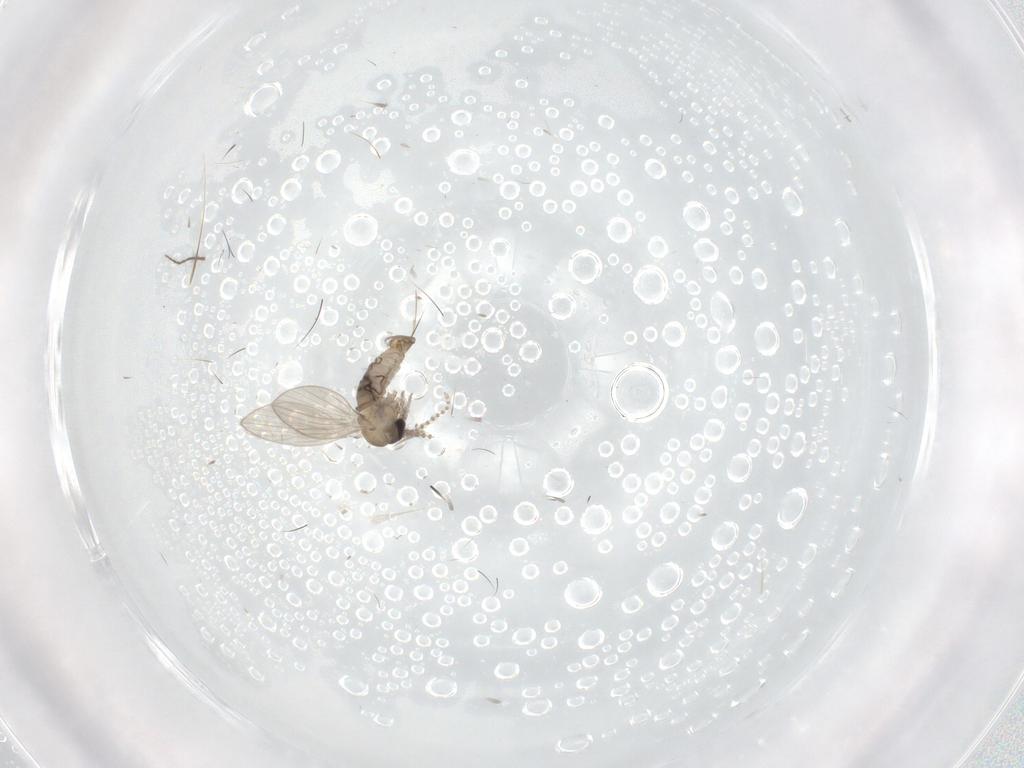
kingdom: Animalia
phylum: Arthropoda
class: Insecta
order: Diptera
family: Psychodidae
